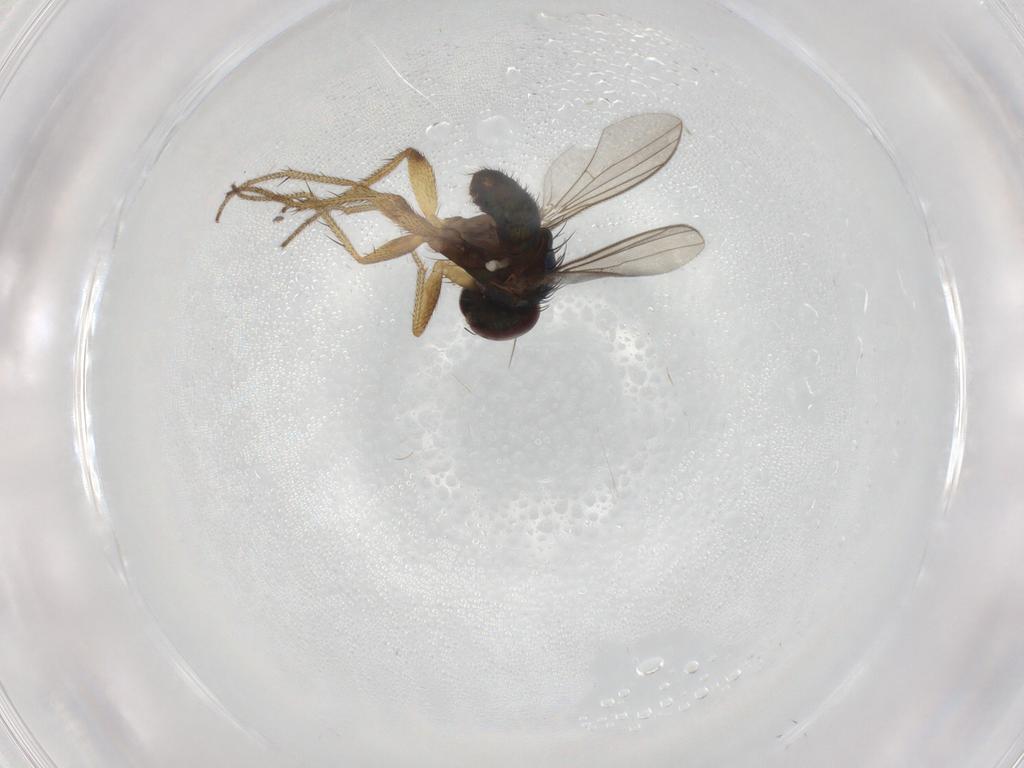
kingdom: Animalia
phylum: Arthropoda
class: Insecta
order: Diptera
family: Dolichopodidae
